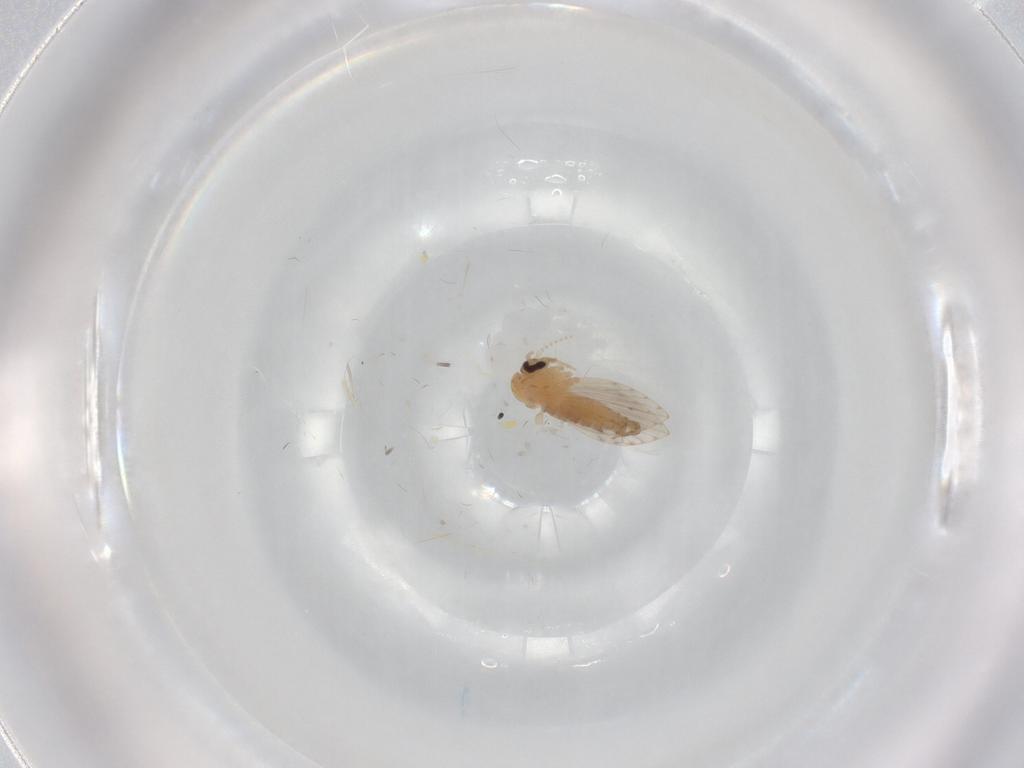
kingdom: Animalia
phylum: Arthropoda
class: Insecta
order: Diptera
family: Psychodidae
